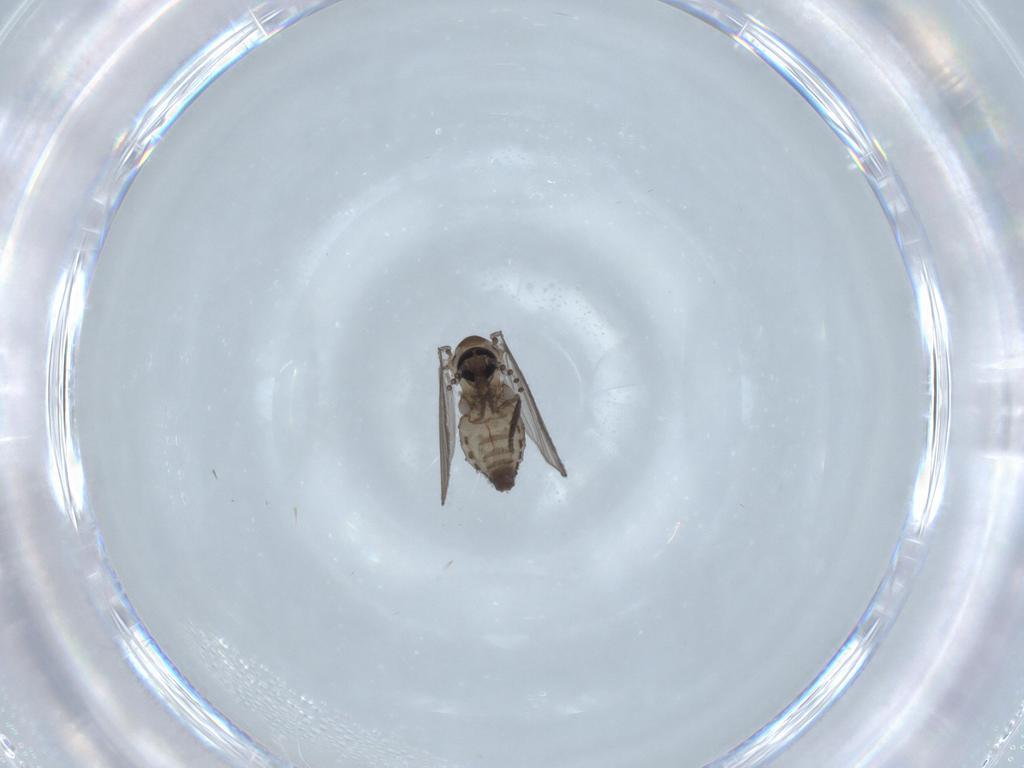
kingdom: Animalia
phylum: Arthropoda
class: Insecta
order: Diptera
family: Psychodidae
